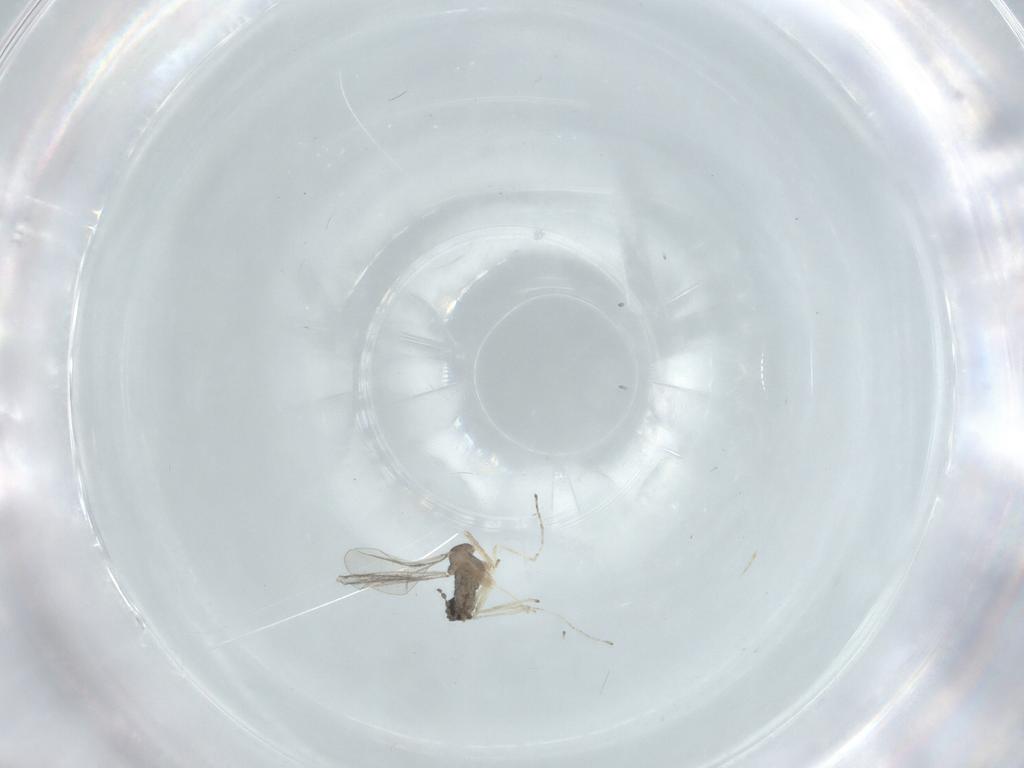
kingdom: Animalia
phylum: Arthropoda
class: Insecta
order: Diptera
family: Cecidomyiidae
